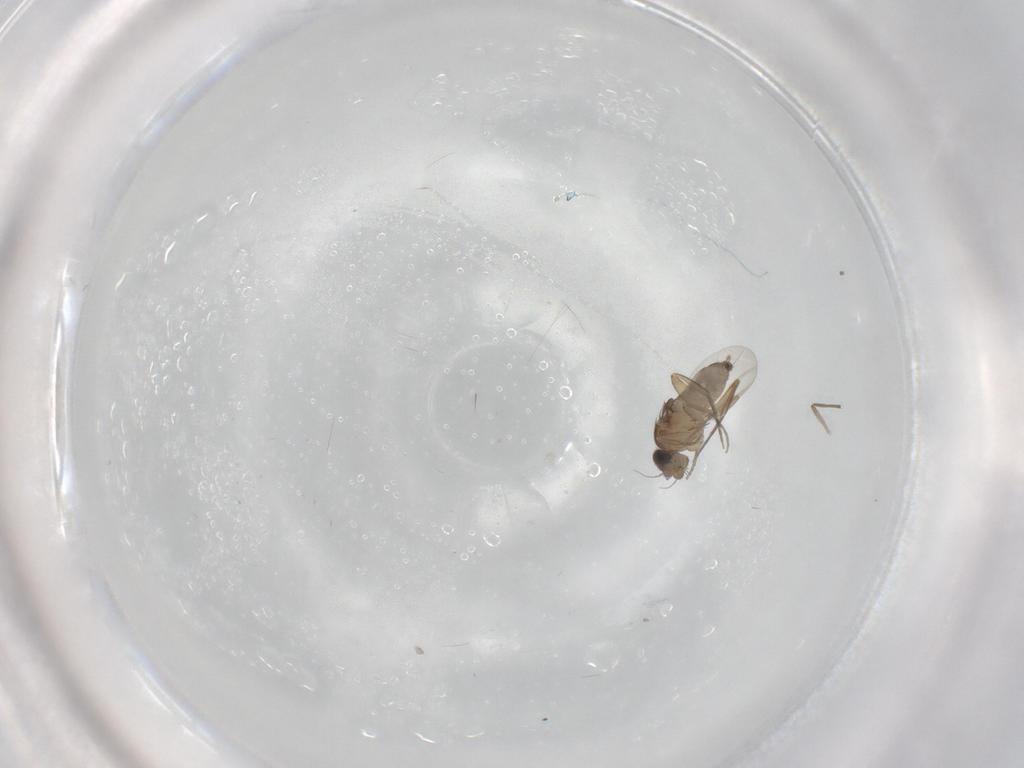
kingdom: Animalia
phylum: Arthropoda
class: Insecta
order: Diptera
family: Phoridae
